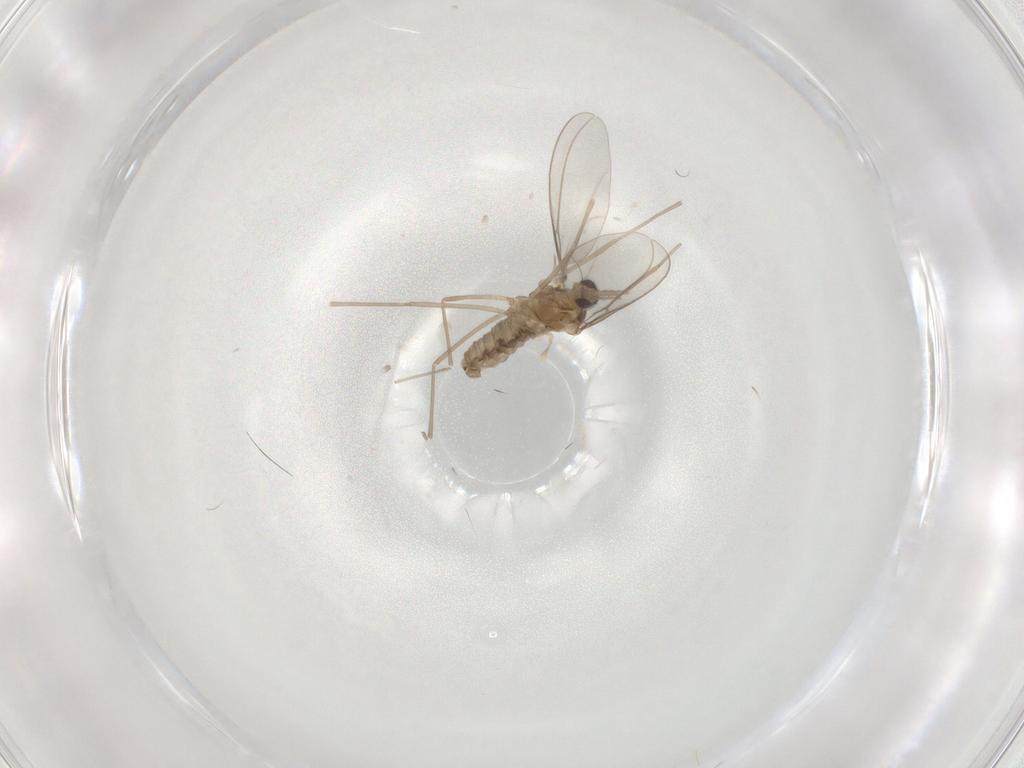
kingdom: Animalia
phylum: Arthropoda
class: Insecta
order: Diptera
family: Cecidomyiidae
